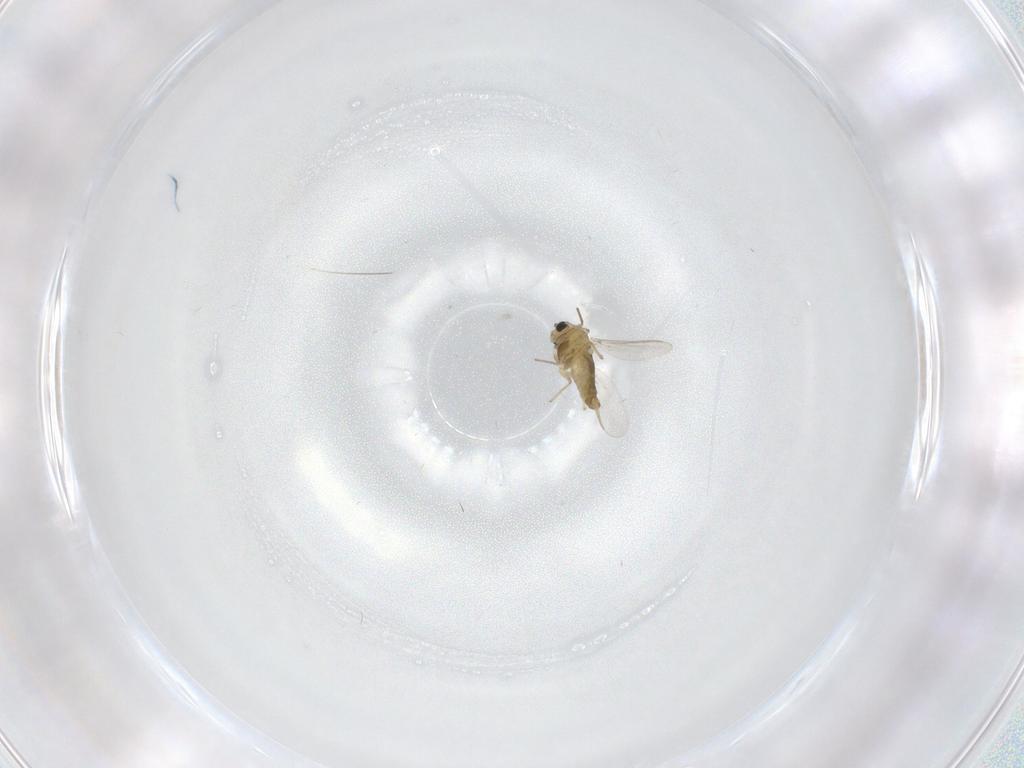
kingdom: Animalia
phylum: Arthropoda
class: Insecta
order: Diptera
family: Chironomidae
